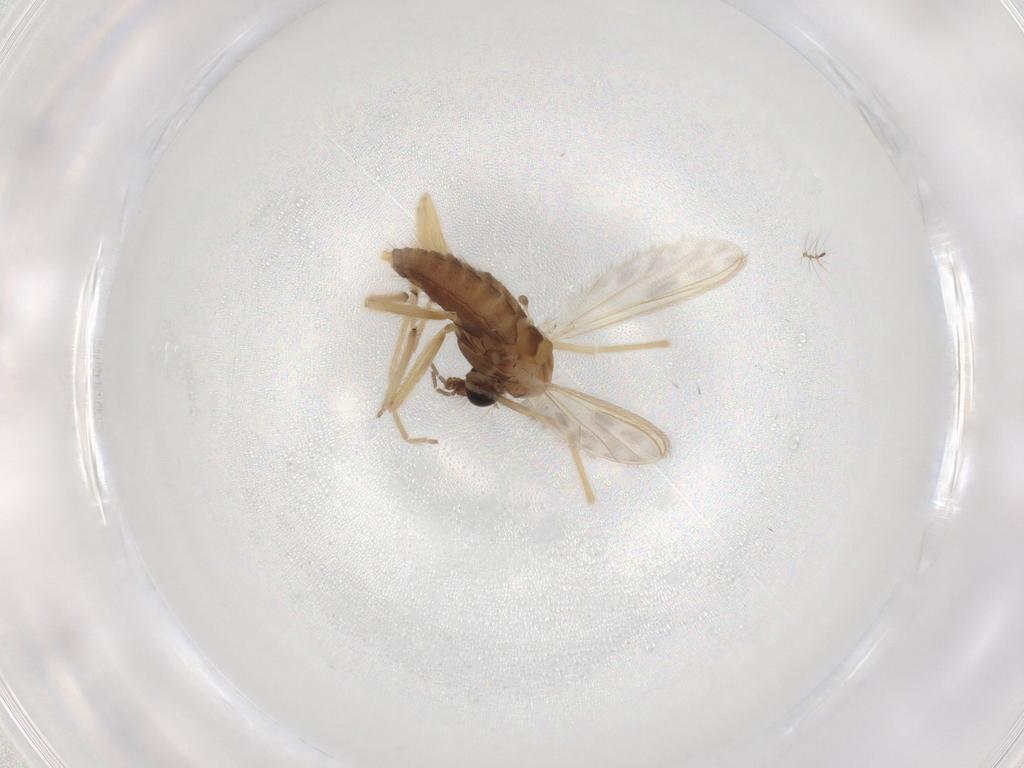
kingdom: Animalia
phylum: Arthropoda
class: Insecta
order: Diptera
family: Chironomidae
